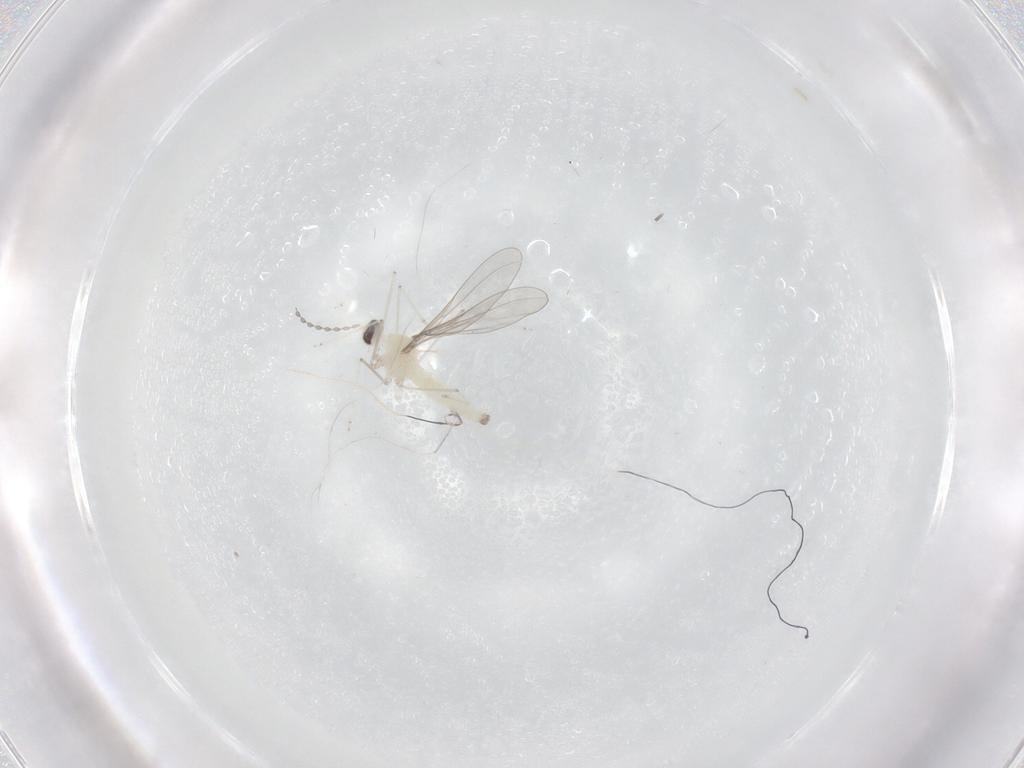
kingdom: Animalia
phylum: Arthropoda
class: Insecta
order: Diptera
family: Cecidomyiidae
